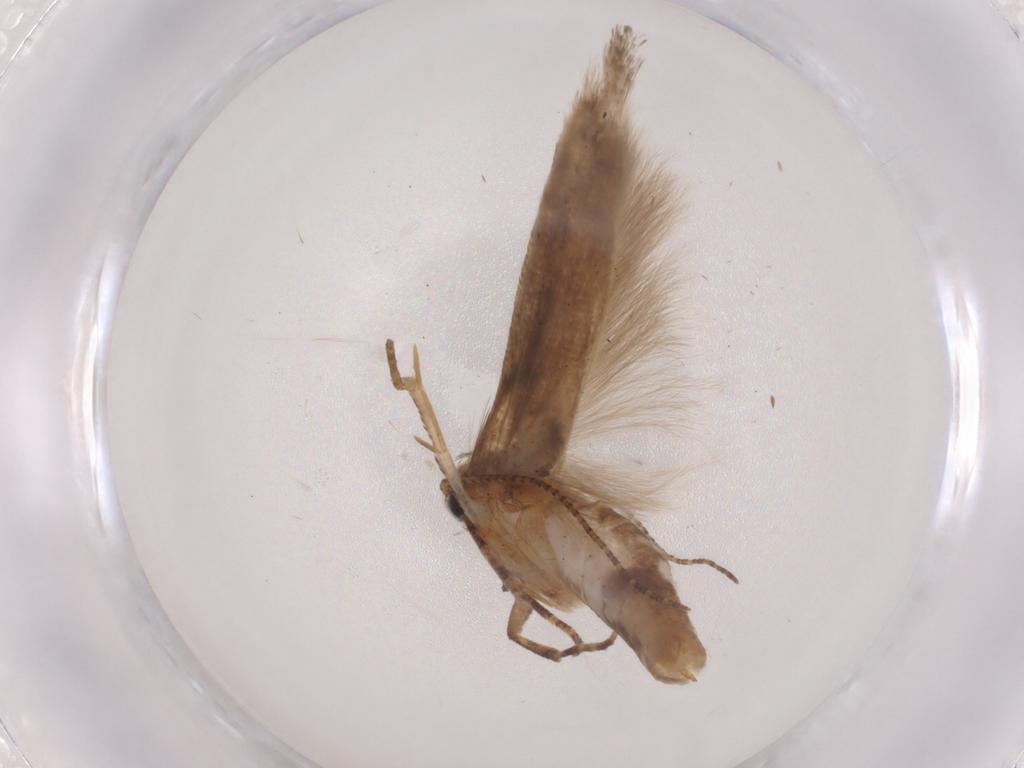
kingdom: Animalia
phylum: Arthropoda
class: Insecta
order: Lepidoptera
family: Gelechiidae
